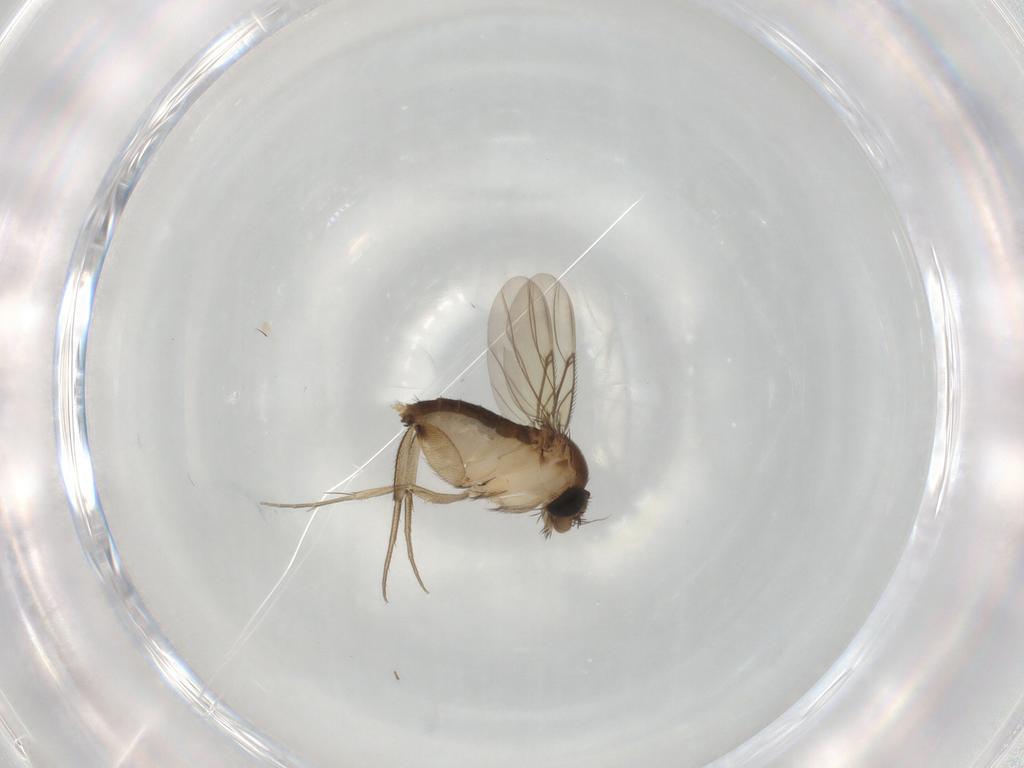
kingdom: Animalia
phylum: Arthropoda
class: Insecta
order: Diptera
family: Phoridae
